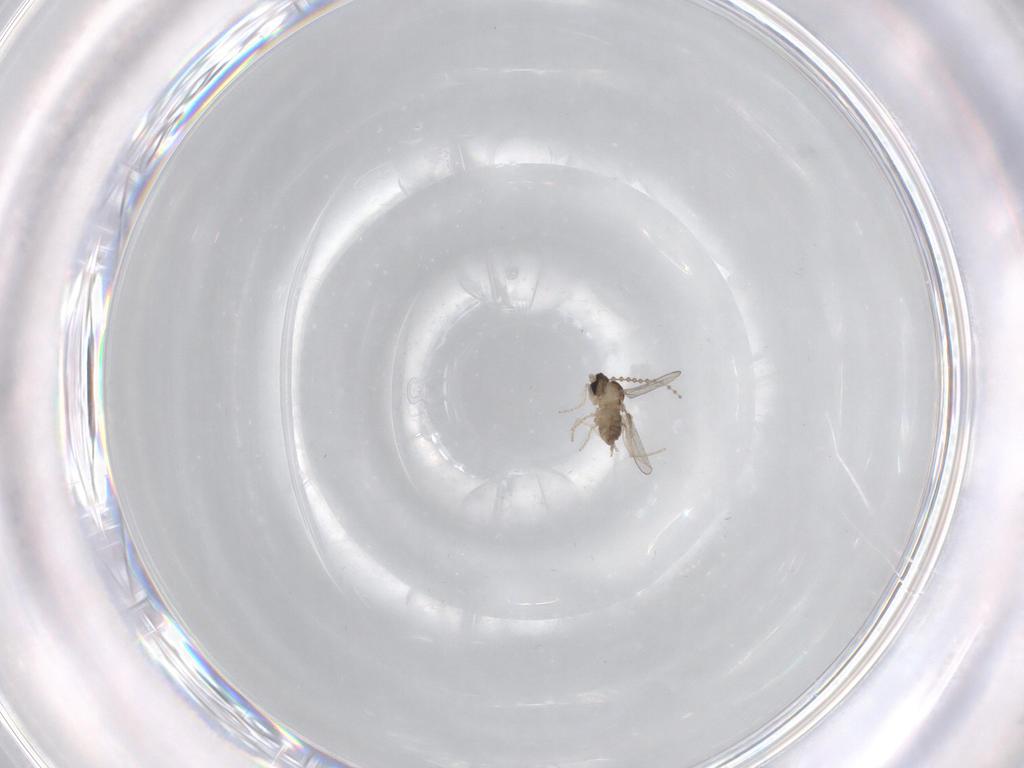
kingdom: Animalia
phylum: Arthropoda
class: Insecta
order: Diptera
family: Cecidomyiidae
